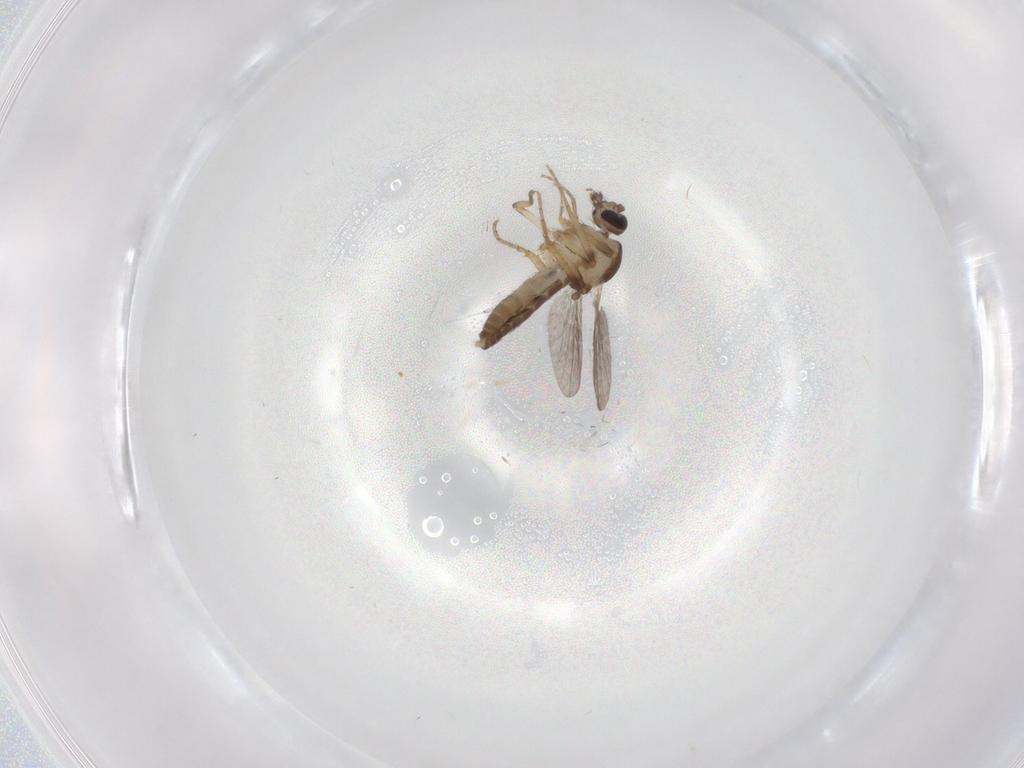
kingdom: Animalia
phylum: Arthropoda
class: Insecta
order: Diptera
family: Ceratopogonidae
